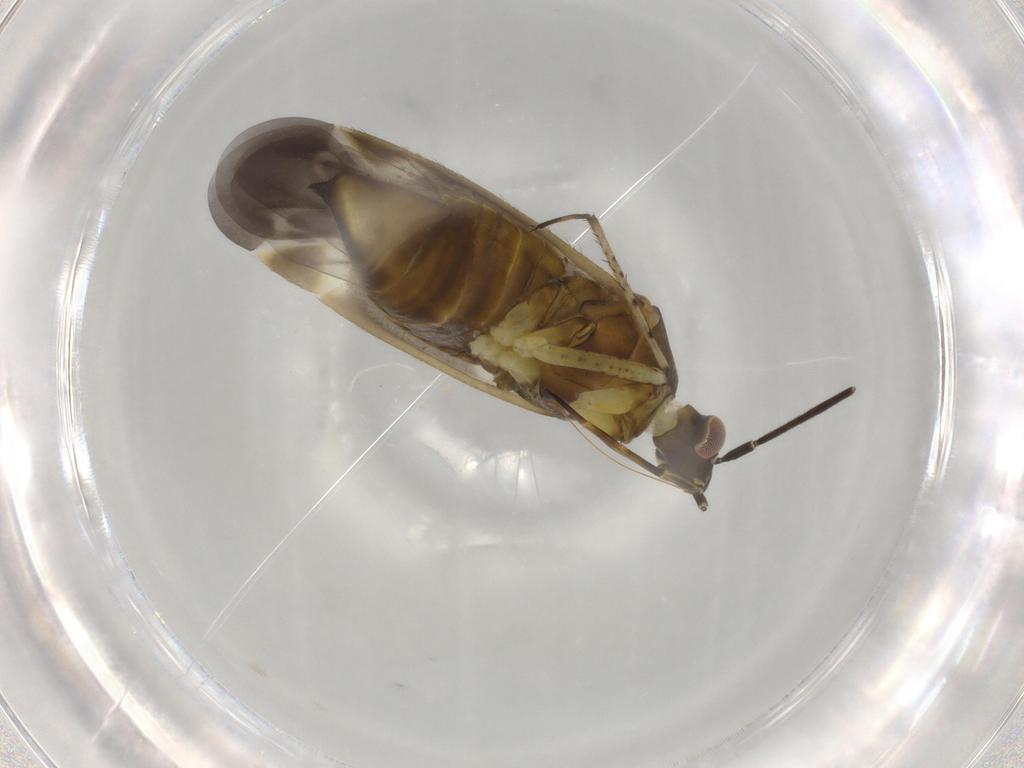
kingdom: Animalia
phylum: Arthropoda
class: Insecta
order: Hemiptera
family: Miridae
